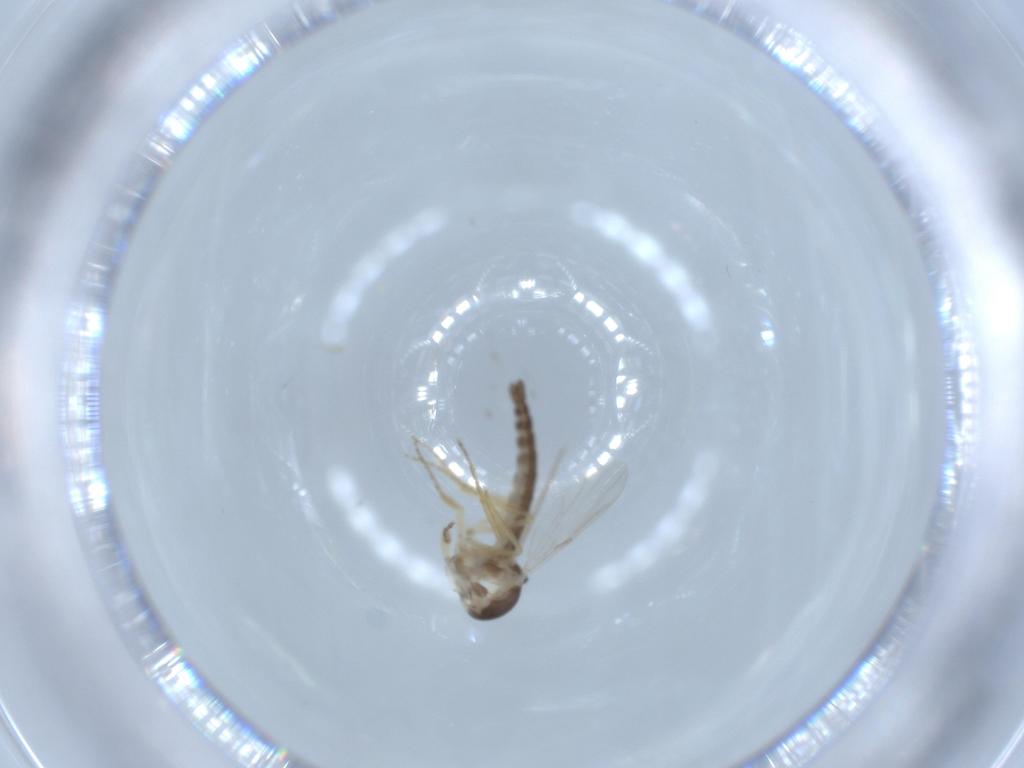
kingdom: Animalia
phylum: Arthropoda
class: Insecta
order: Diptera
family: Ceratopogonidae
